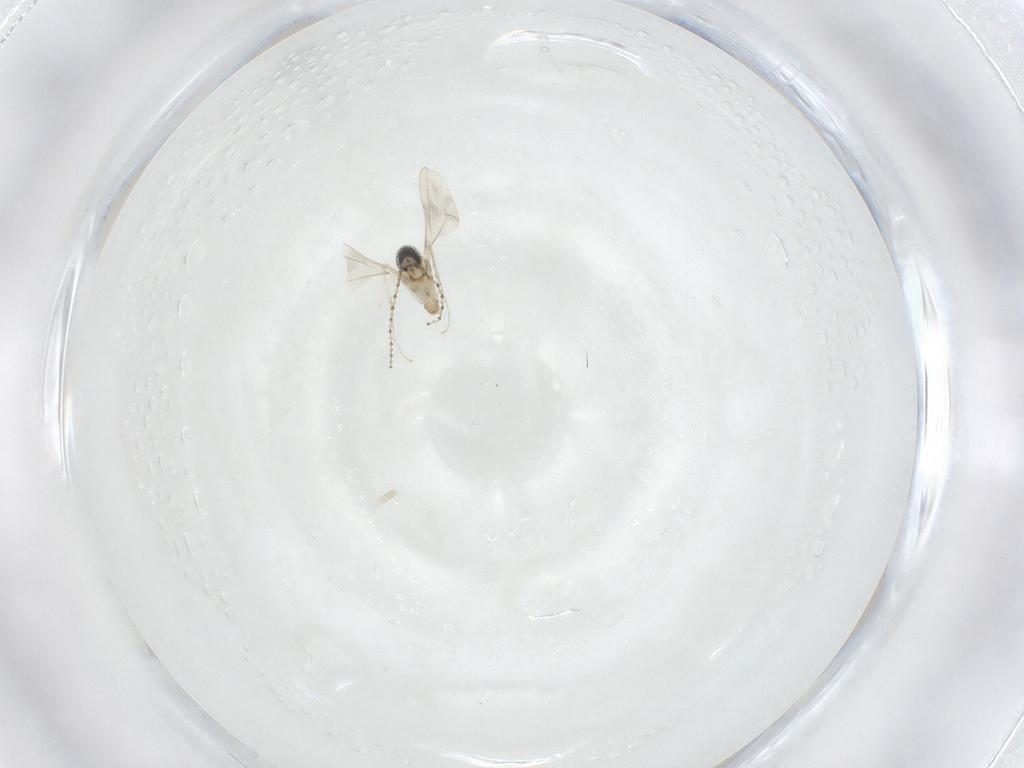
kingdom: Animalia
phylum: Arthropoda
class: Insecta
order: Diptera
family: Cecidomyiidae
